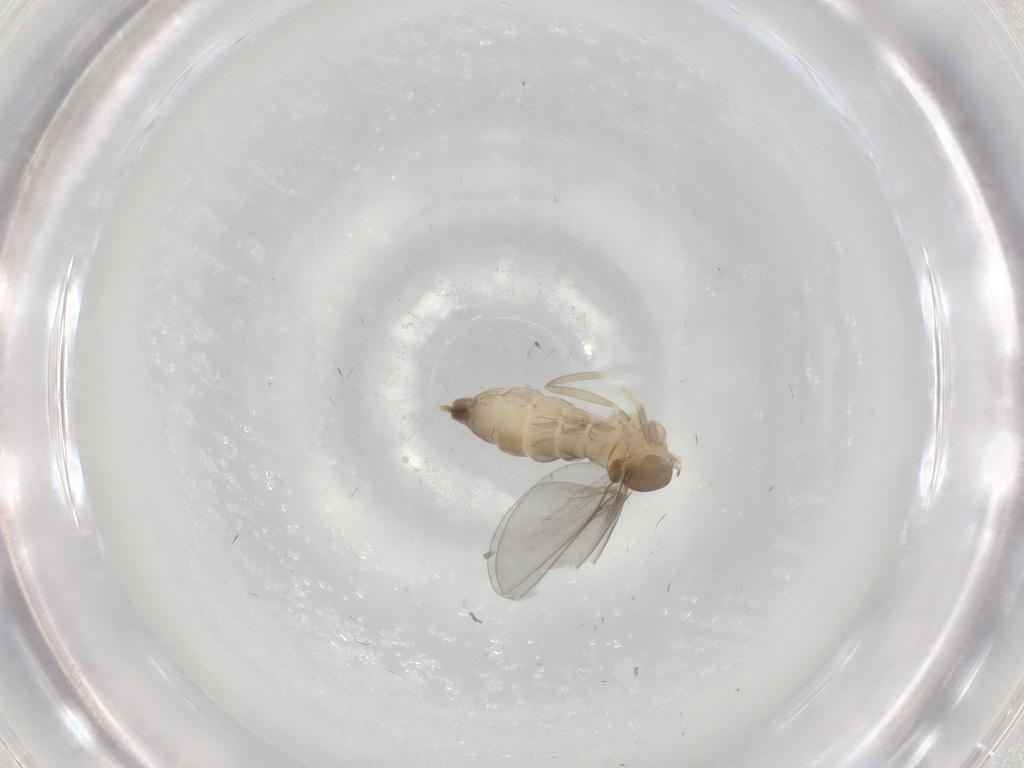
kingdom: Animalia
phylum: Arthropoda
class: Insecta
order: Diptera
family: Cecidomyiidae
